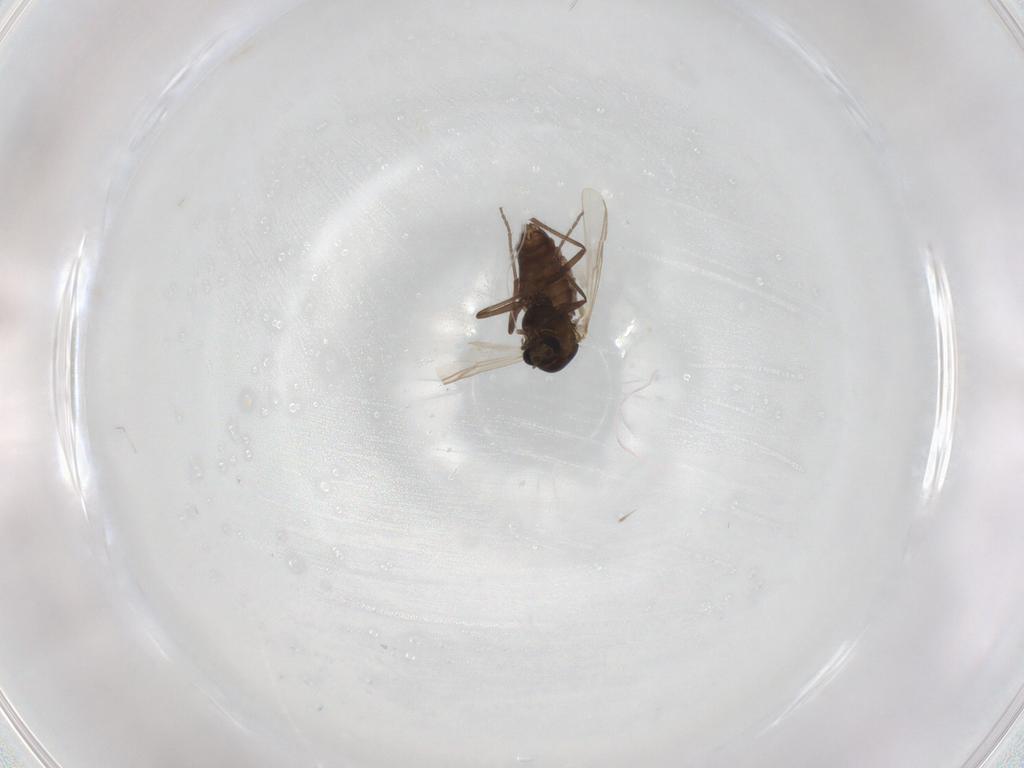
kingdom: Animalia
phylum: Arthropoda
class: Insecta
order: Diptera
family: Chironomidae
